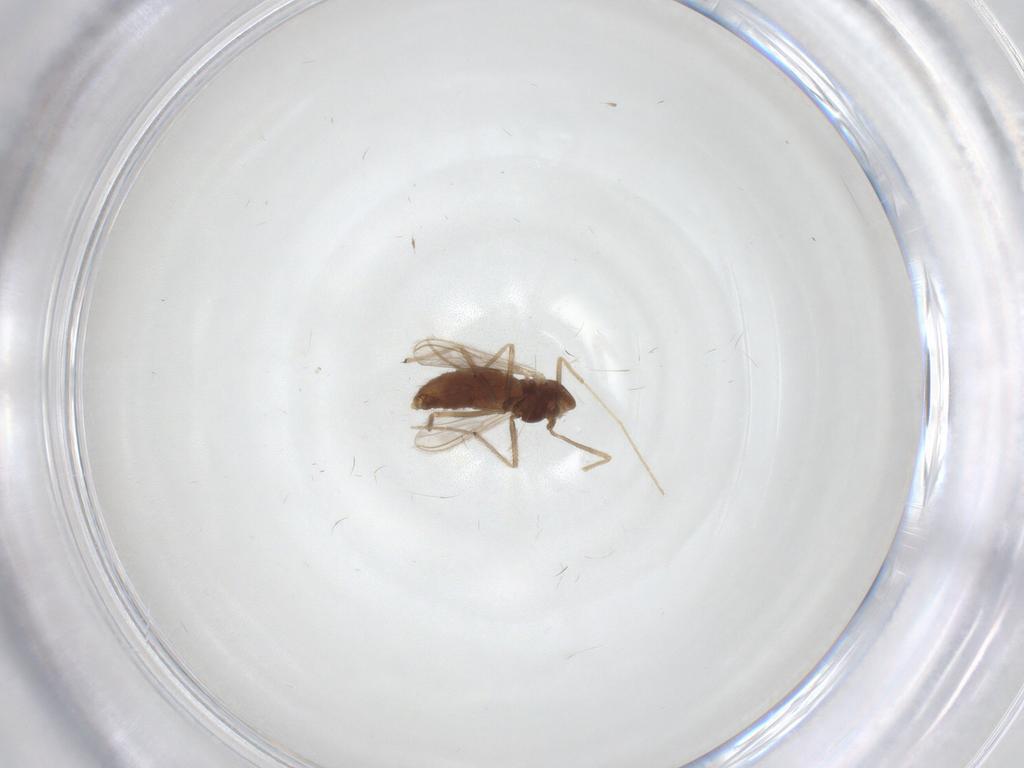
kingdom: Animalia
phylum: Arthropoda
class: Insecta
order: Diptera
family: Chironomidae
